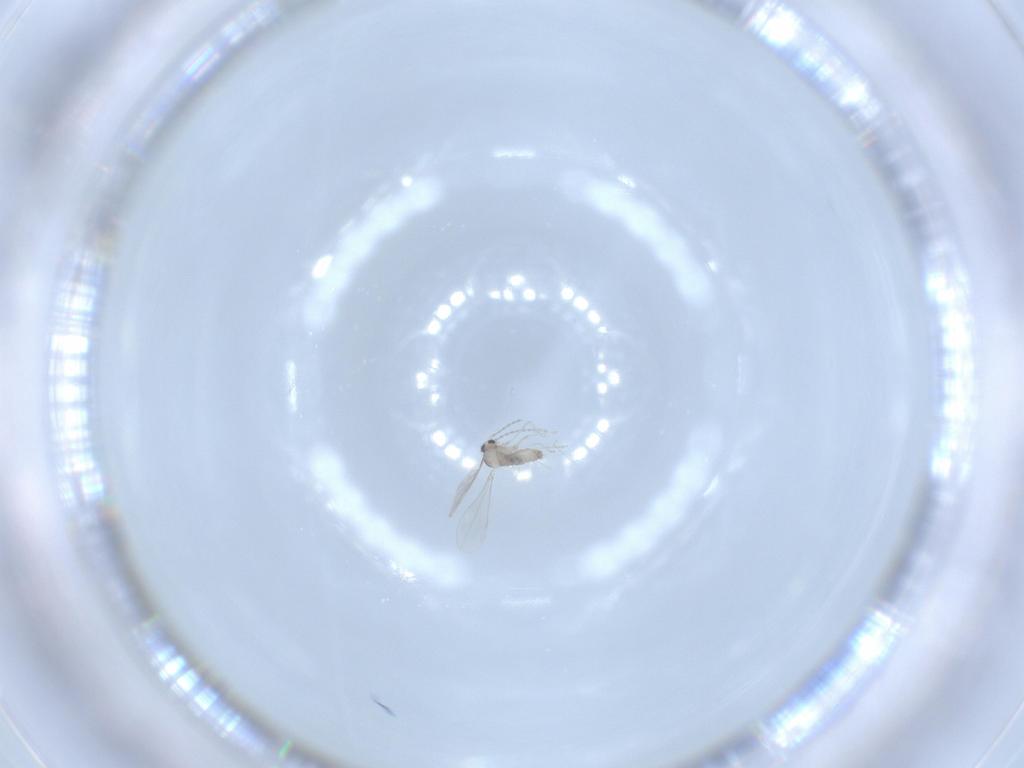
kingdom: Animalia
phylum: Arthropoda
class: Insecta
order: Diptera
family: Cecidomyiidae
